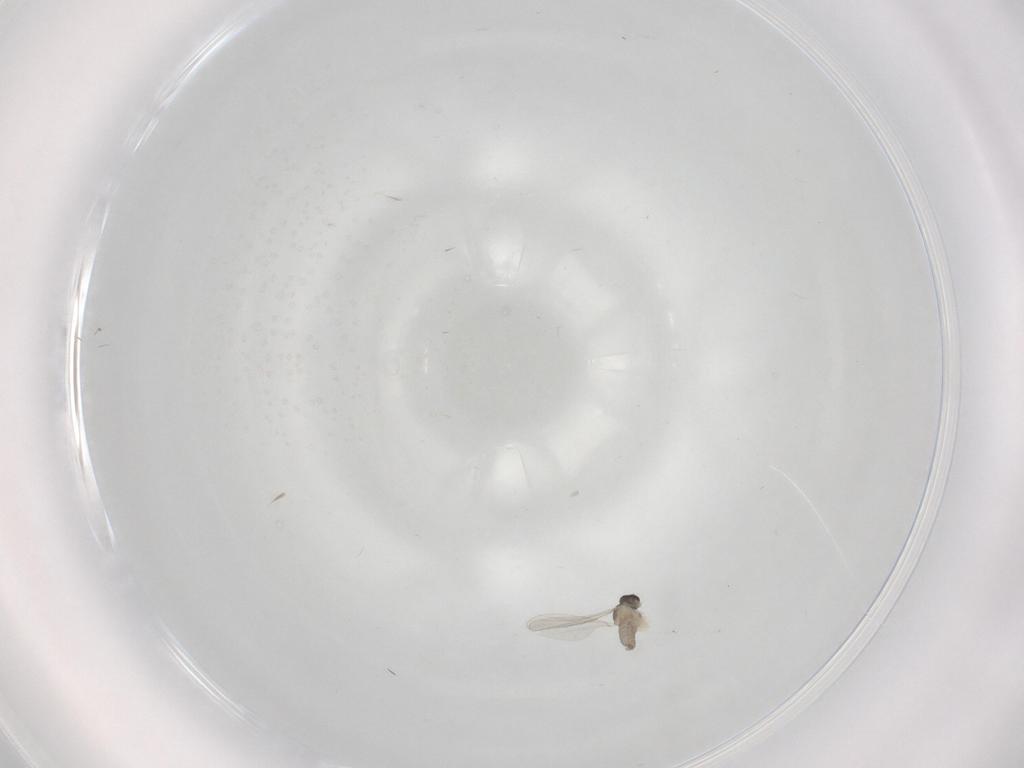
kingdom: Animalia
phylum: Arthropoda
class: Insecta
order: Diptera
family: Cecidomyiidae
